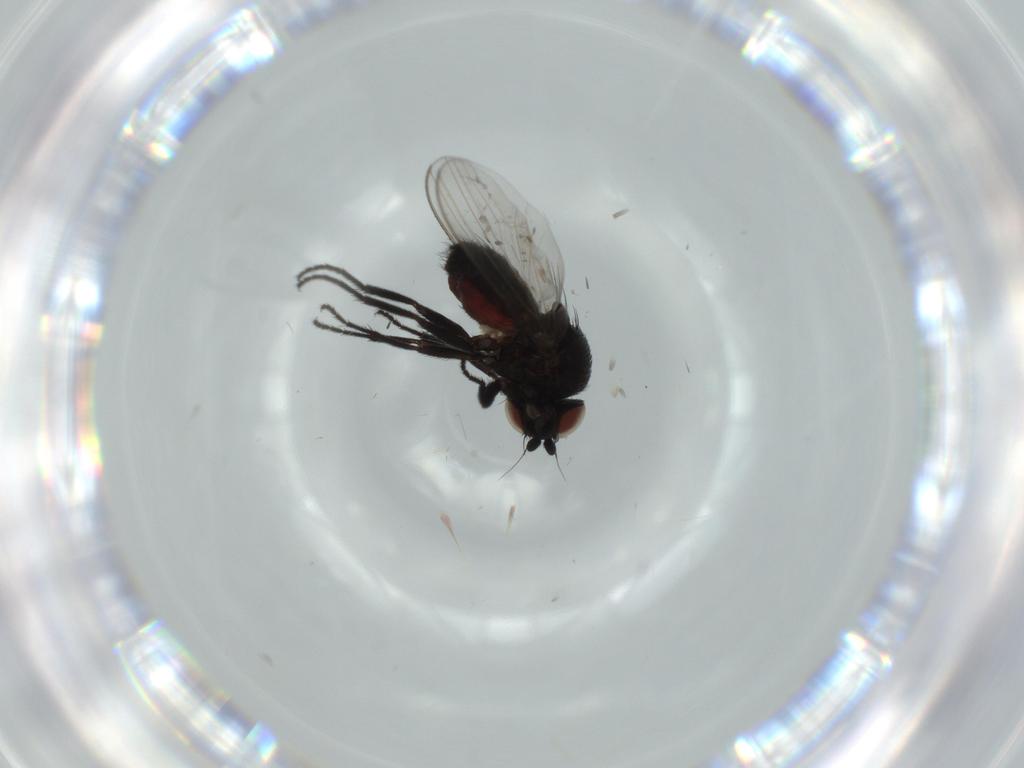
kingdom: Animalia
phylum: Arthropoda
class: Insecta
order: Diptera
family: Milichiidae
